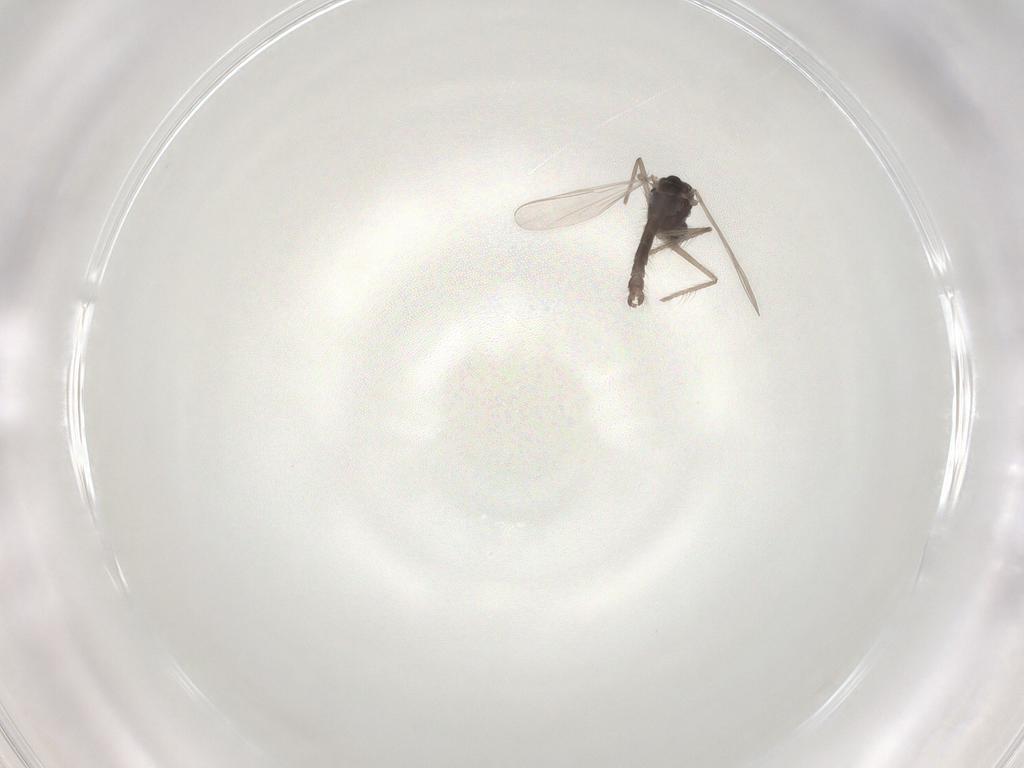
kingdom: Animalia
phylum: Arthropoda
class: Insecta
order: Diptera
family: Chironomidae
